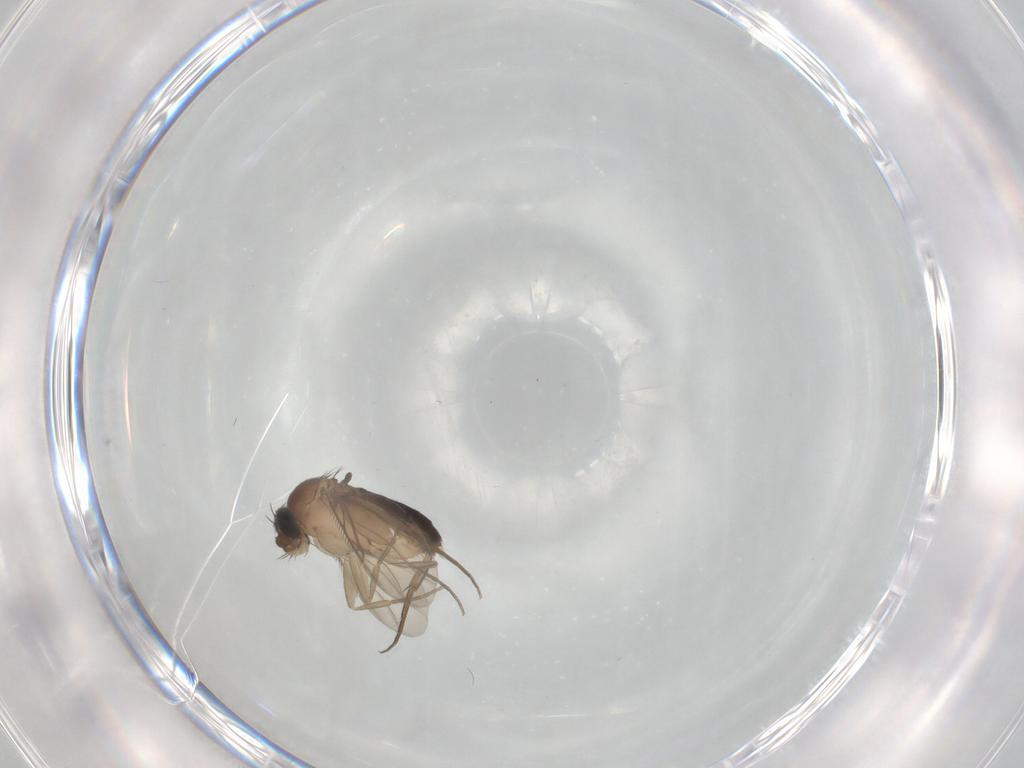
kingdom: Animalia
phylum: Arthropoda
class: Insecta
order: Diptera
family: Phoridae
